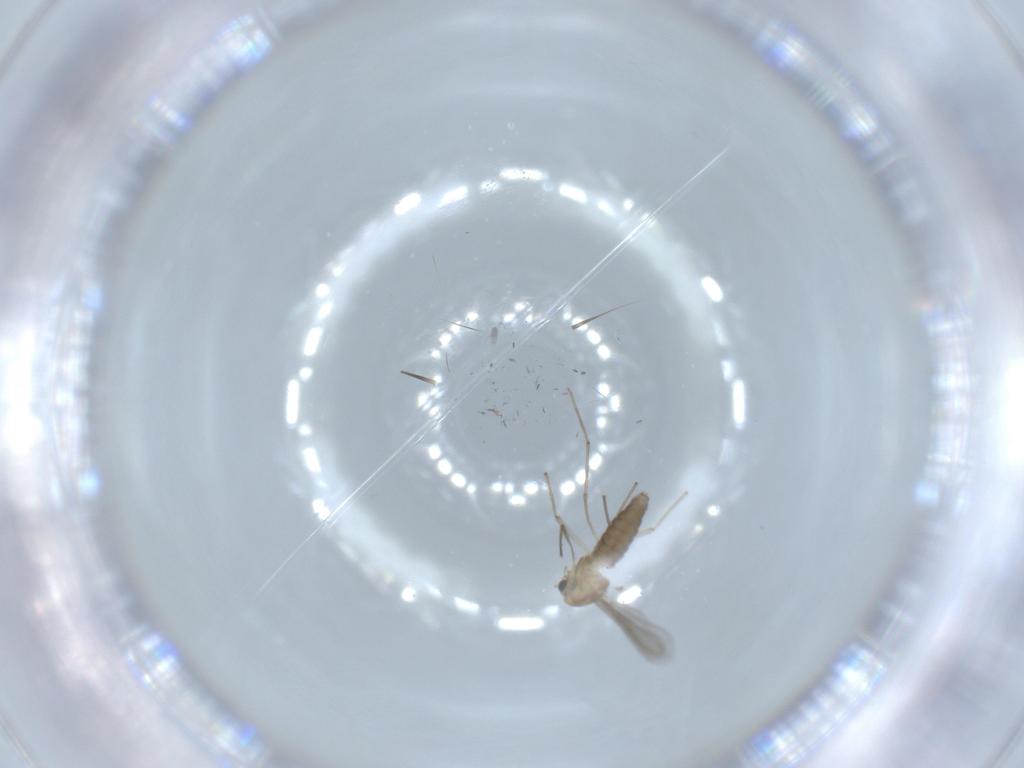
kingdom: Animalia
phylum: Arthropoda
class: Insecta
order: Diptera
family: Chironomidae
